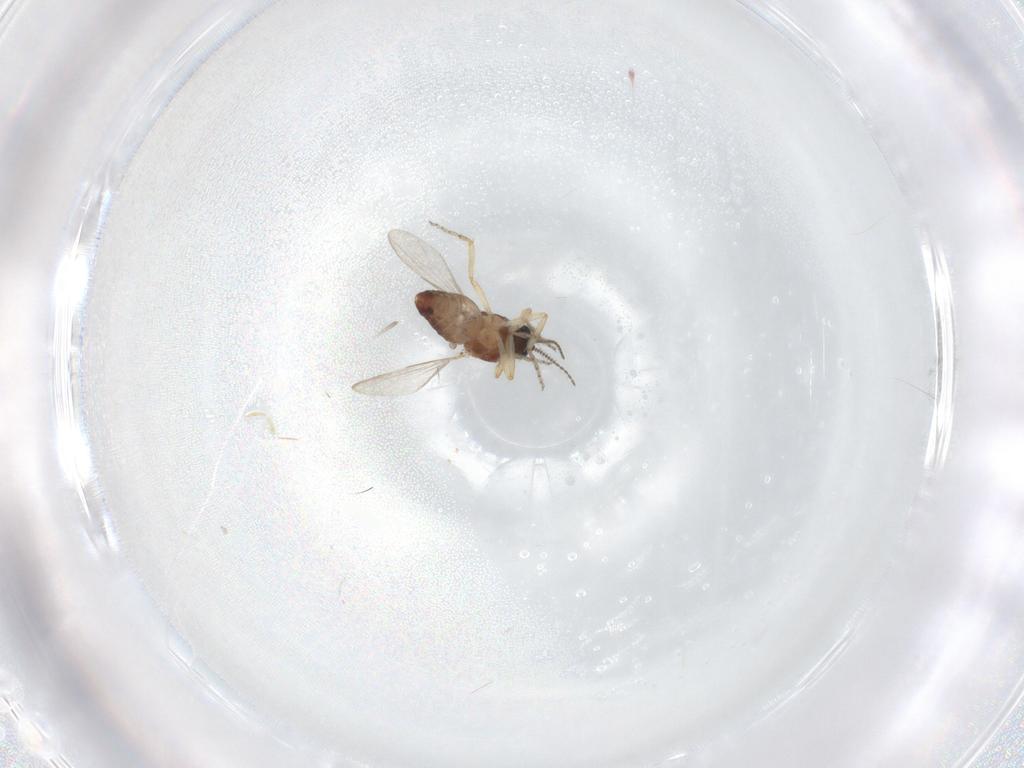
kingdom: Animalia
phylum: Arthropoda
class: Insecta
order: Diptera
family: Ceratopogonidae
